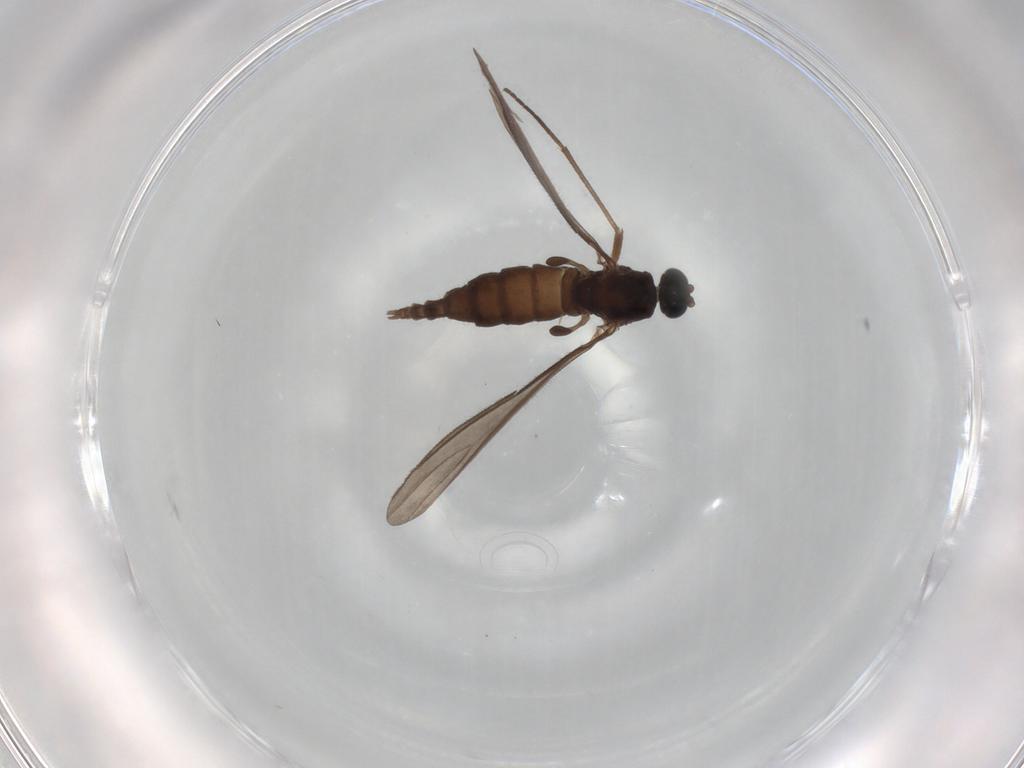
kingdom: Animalia
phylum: Arthropoda
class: Insecta
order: Diptera
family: Sciaridae
